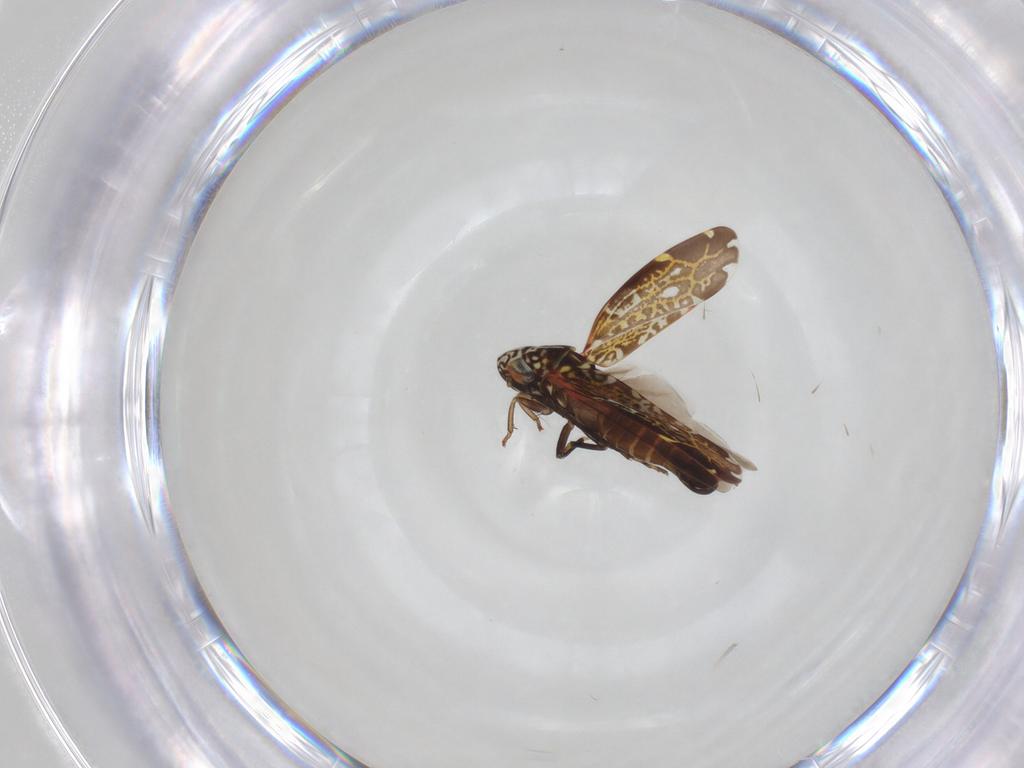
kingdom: Animalia
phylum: Arthropoda
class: Insecta
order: Hemiptera
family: Cicadellidae
